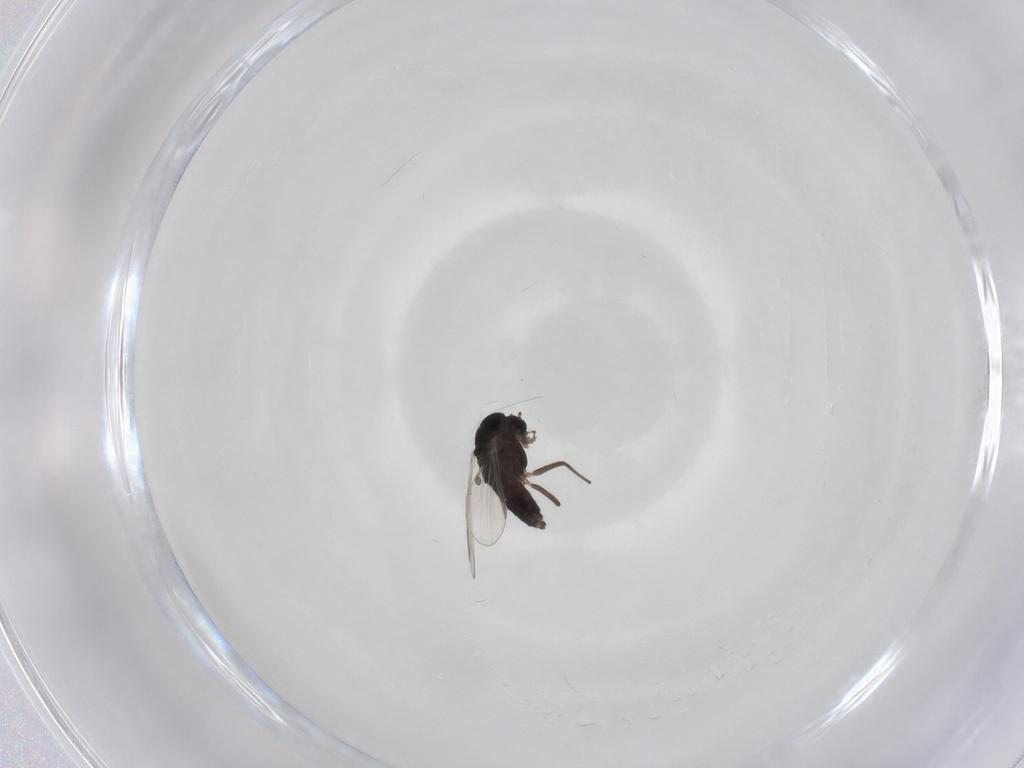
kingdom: Animalia
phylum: Arthropoda
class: Insecta
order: Diptera
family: Chironomidae
